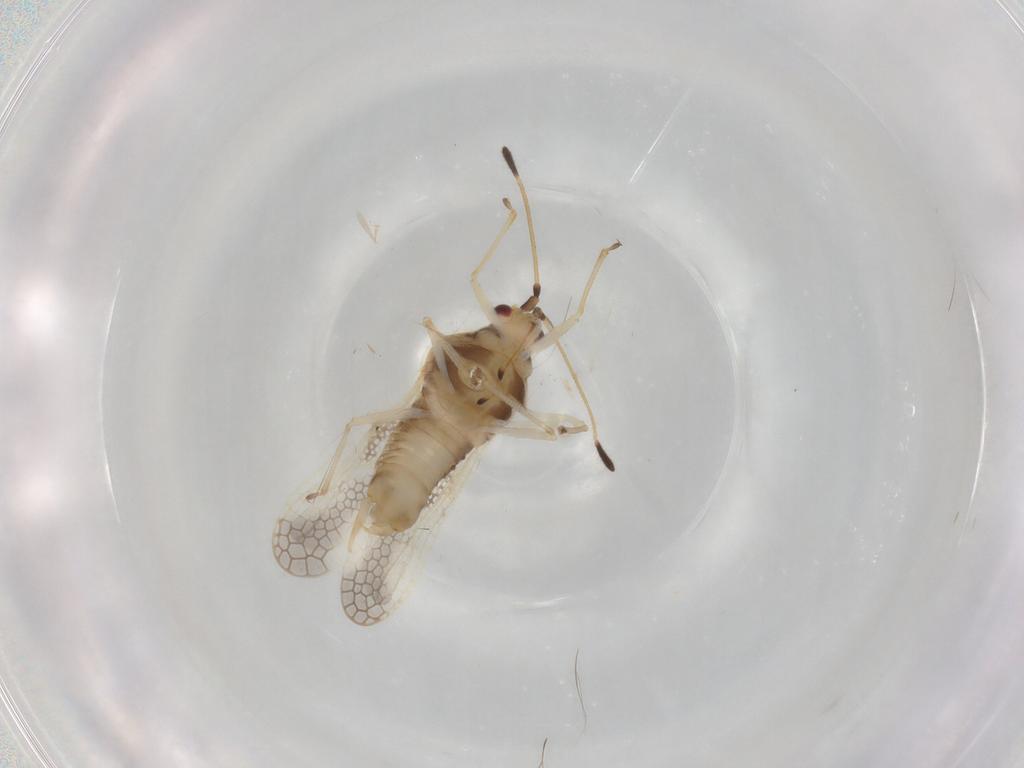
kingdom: Animalia
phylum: Arthropoda
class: Insecta
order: Hemiptera
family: Tingidae
